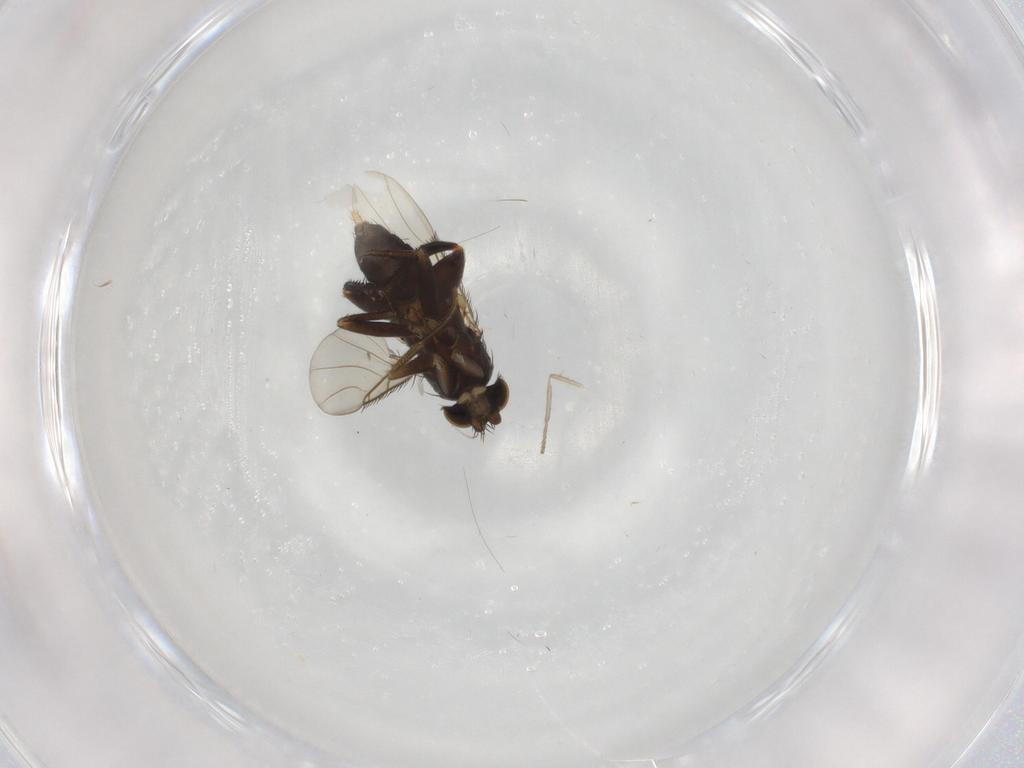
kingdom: Animalia
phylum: Arthropoda
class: Insecta
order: Diptera
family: Phoridae
